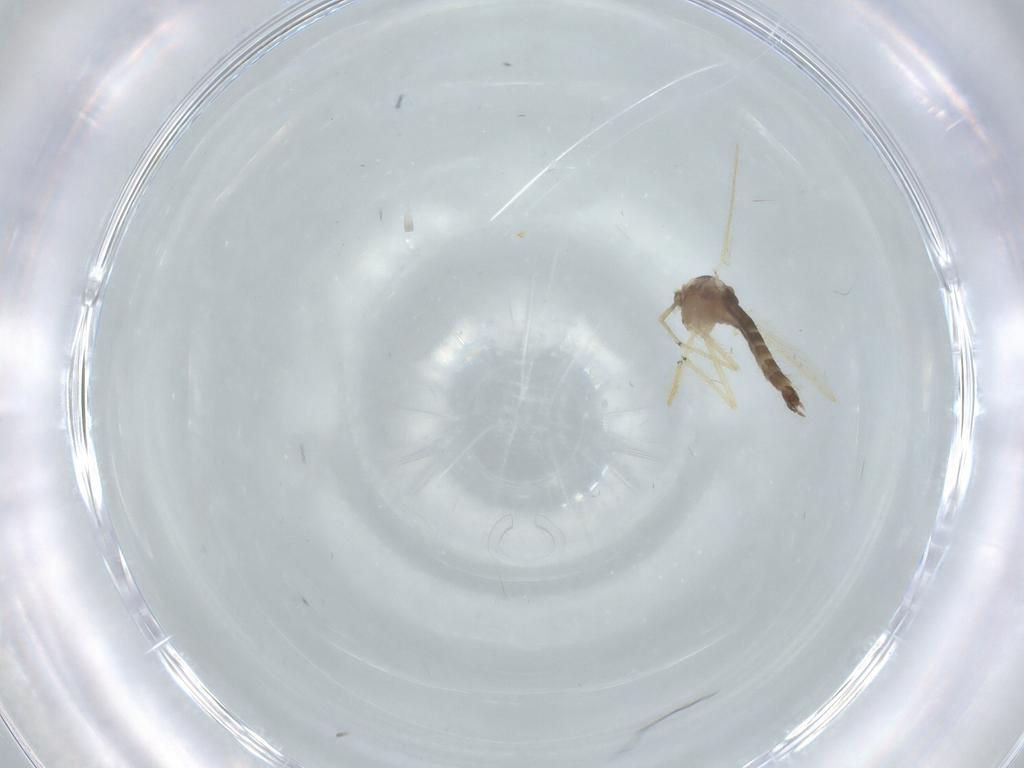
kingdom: Animalia
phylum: Arthropoda
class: Insecta
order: Diptera
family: Chironomidae
